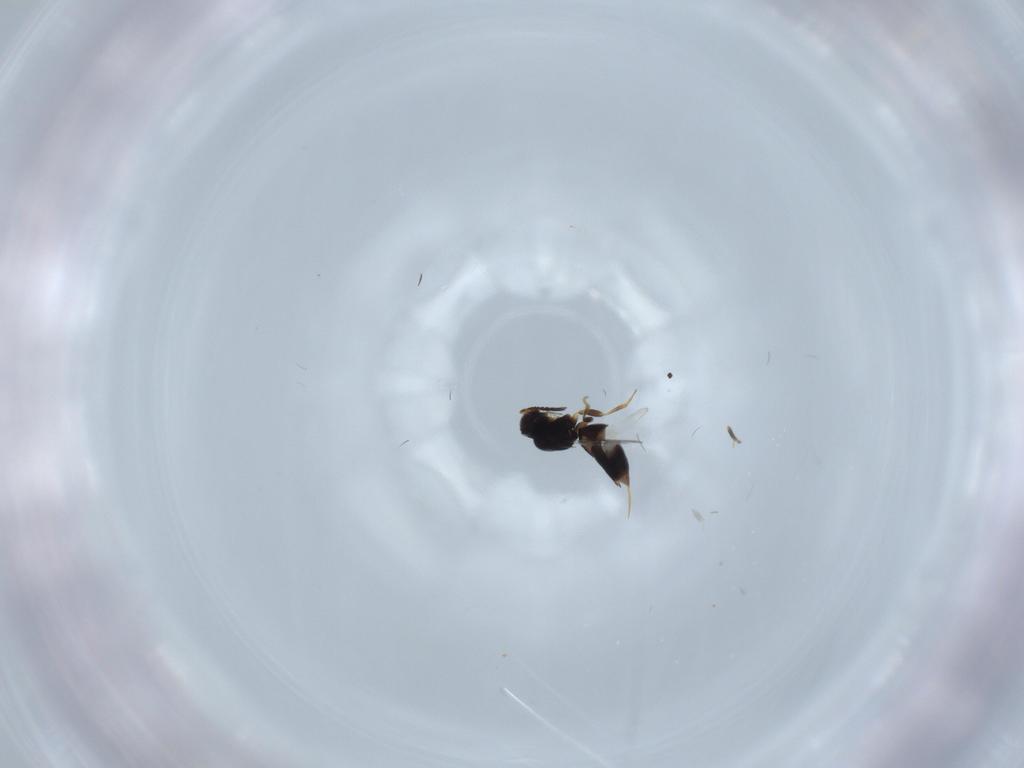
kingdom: Animalia
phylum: Arthropoda
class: Insecta
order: Hymenoptera
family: Ceraphronidae
